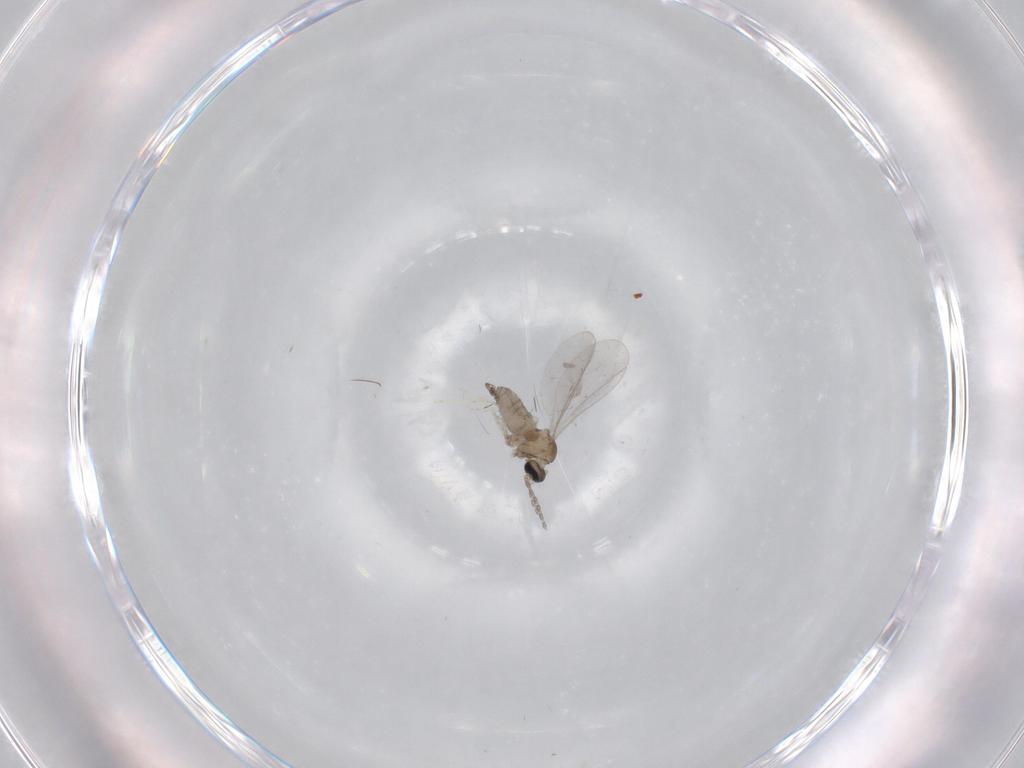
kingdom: Animalia
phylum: Arthropoda
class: Insecta
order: Diptera
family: Cecidomyiidae
